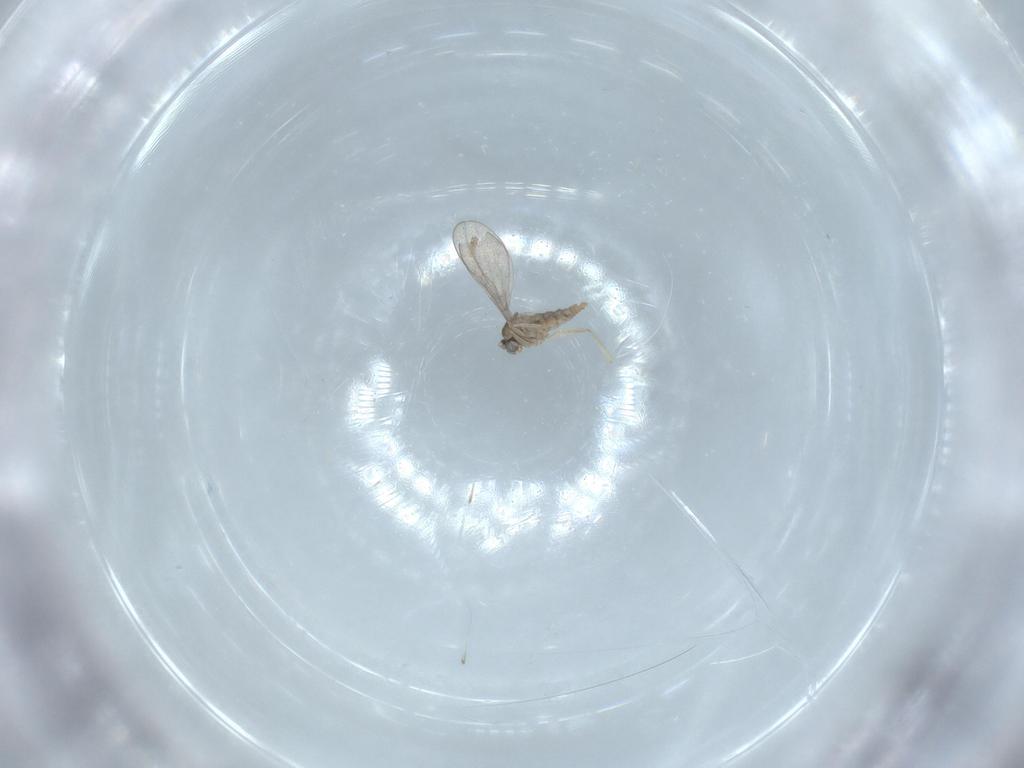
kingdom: Animalia
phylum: Arthropoda
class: Insecta
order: Diptera
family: Cecidomyiidae
